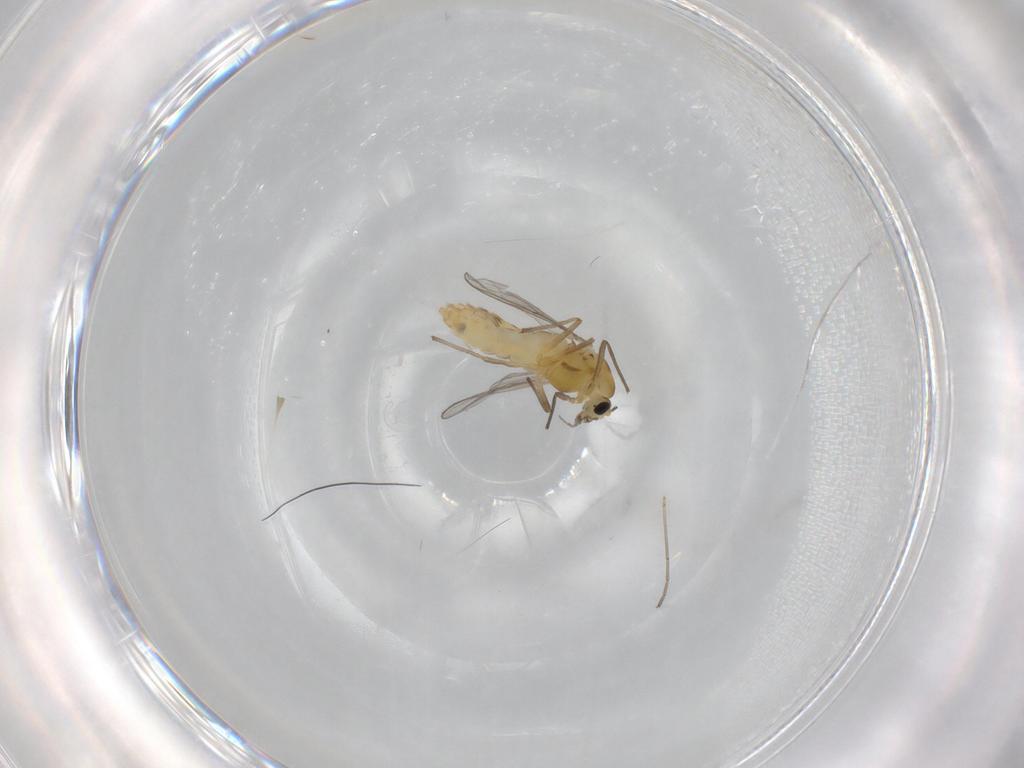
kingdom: Animalia
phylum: Arthropoda
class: Insecta
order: Diptera
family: Chironomidae
